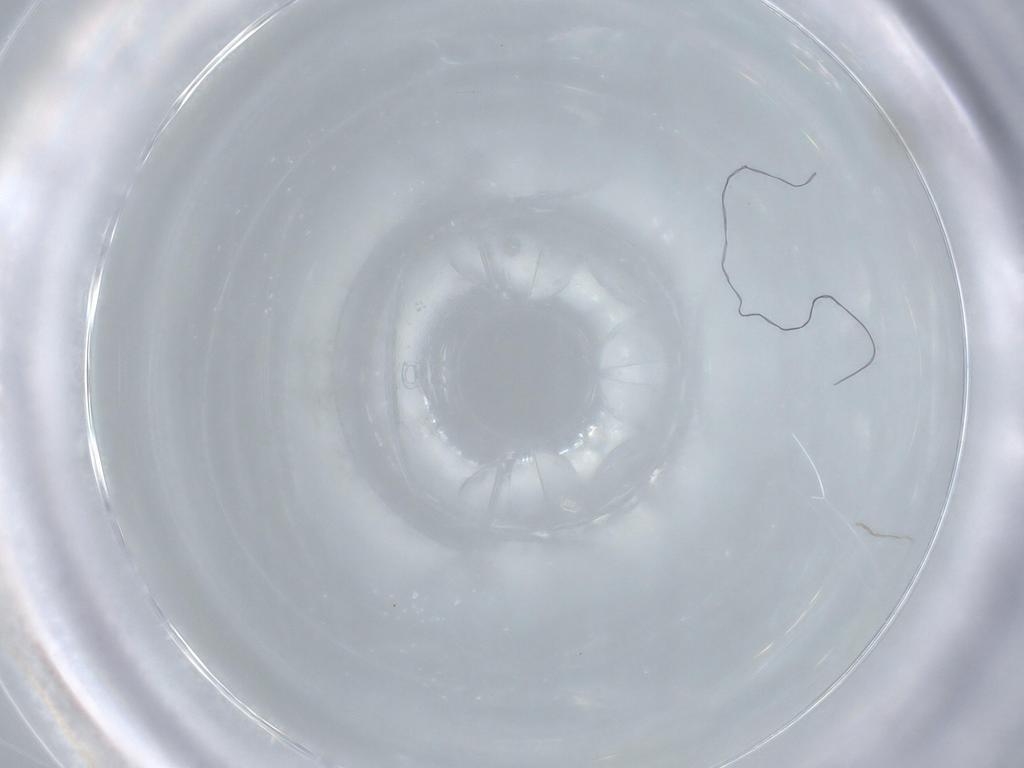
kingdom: Animalia
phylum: Arthropoda
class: Insecta
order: Diptera
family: Cecidomyiidae
